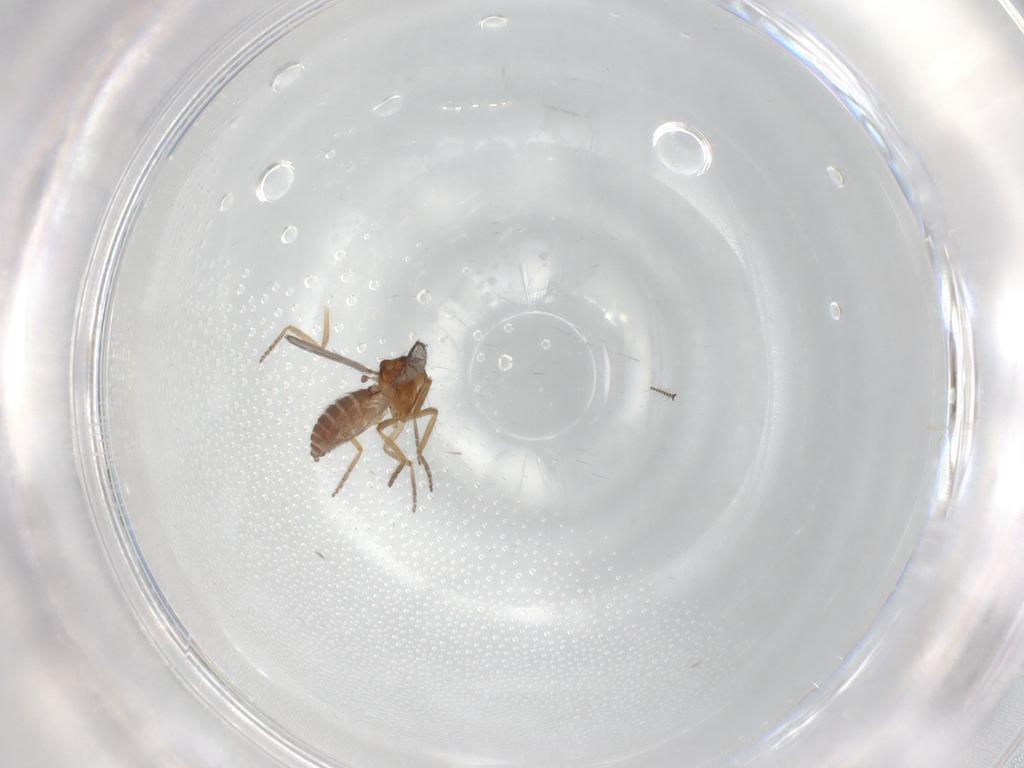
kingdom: Animalia
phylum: Arthropoda
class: Insecta
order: Diptera
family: Ceratopogonidae
